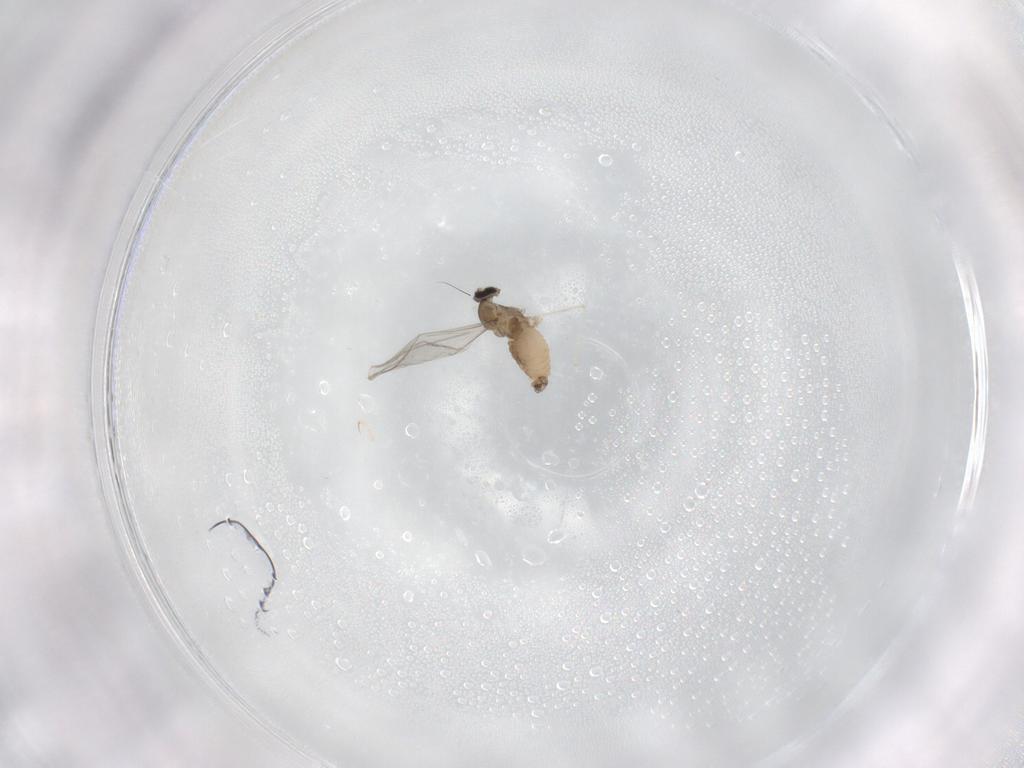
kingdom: Animalia
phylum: Arthropoda
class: Insecta
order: Diptera
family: Cecidomyiidae
